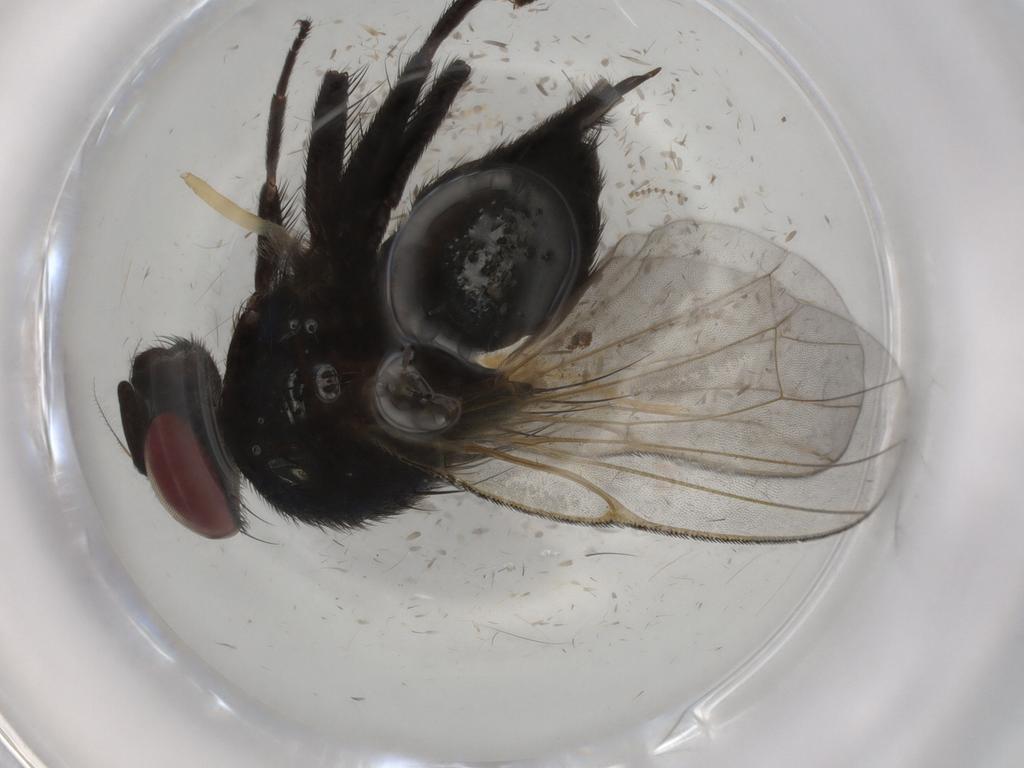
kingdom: Animalia
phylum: Arthropoda
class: Insecta
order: Diptera
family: Lonchaeidae
